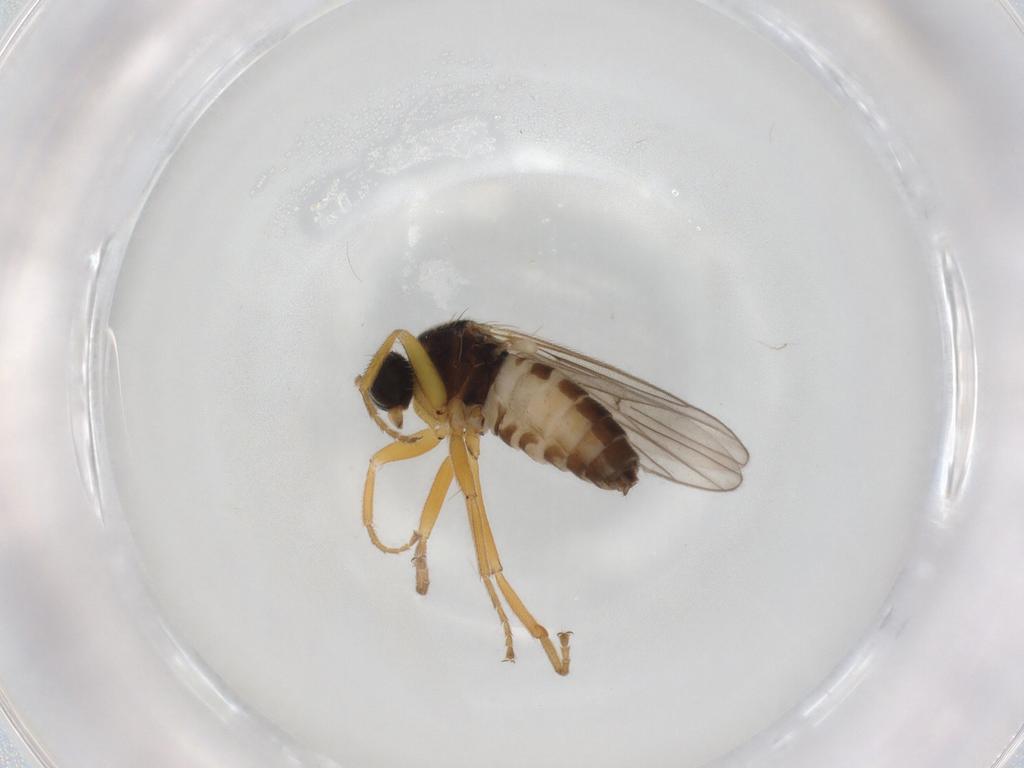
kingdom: Animalia
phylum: Arthropoda
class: Insecta
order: Diptera
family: Hybotidae
